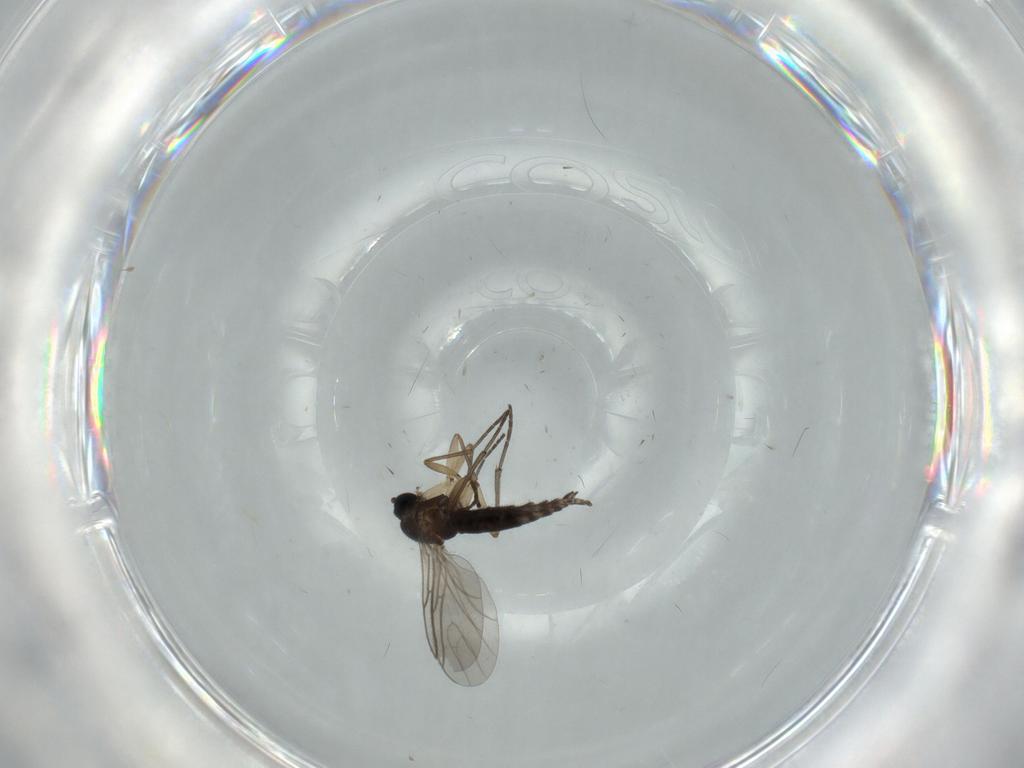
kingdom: Animalia
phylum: Arthropoda
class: Insecta
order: Diptera
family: Sciaridae
